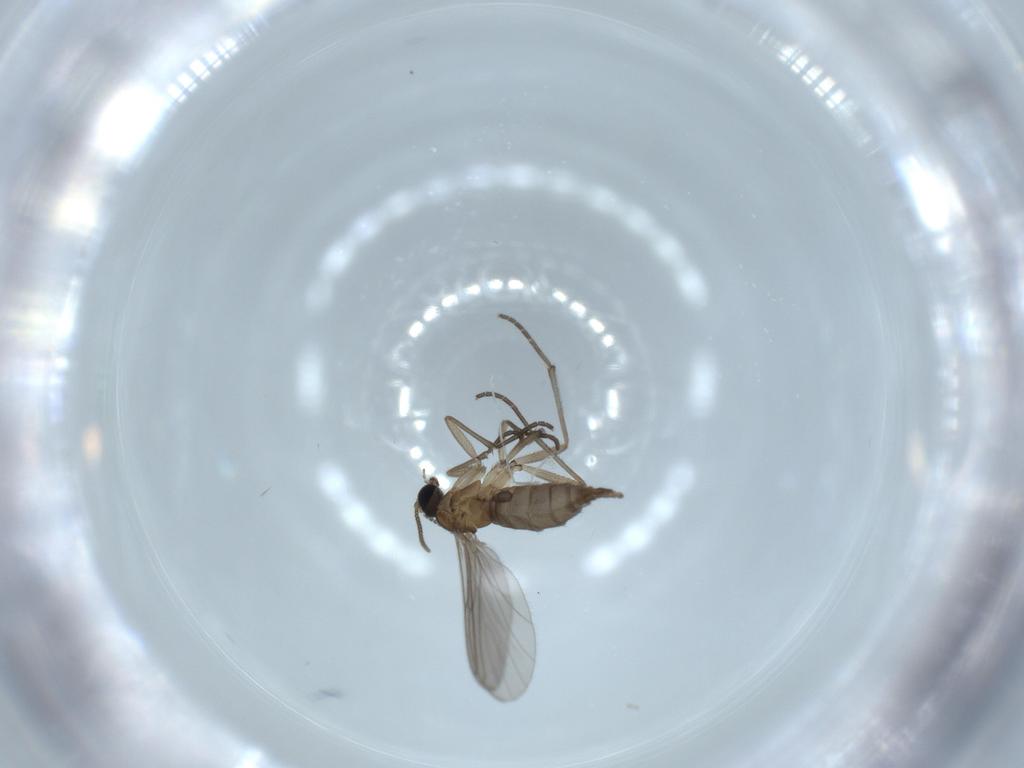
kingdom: Animalia
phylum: Arthropoda
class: Insecta
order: Diptera
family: Sciaridae
